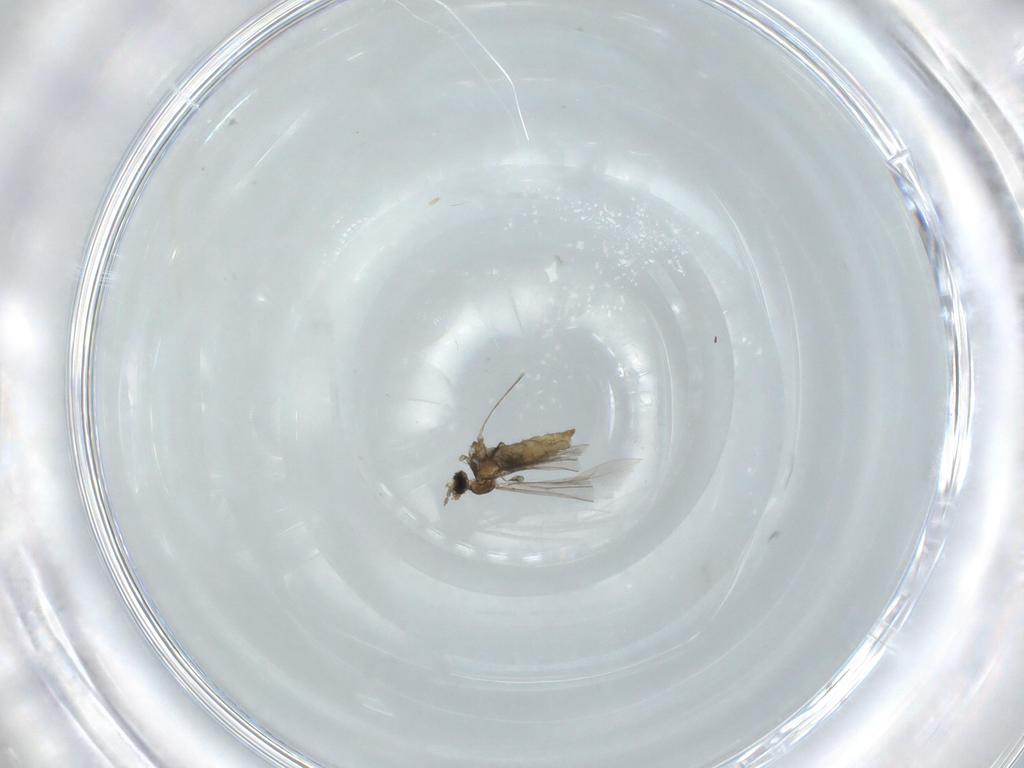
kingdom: Animalia
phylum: Arthropoda
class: Insecta
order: Diptera
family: Cecidomyiidae
